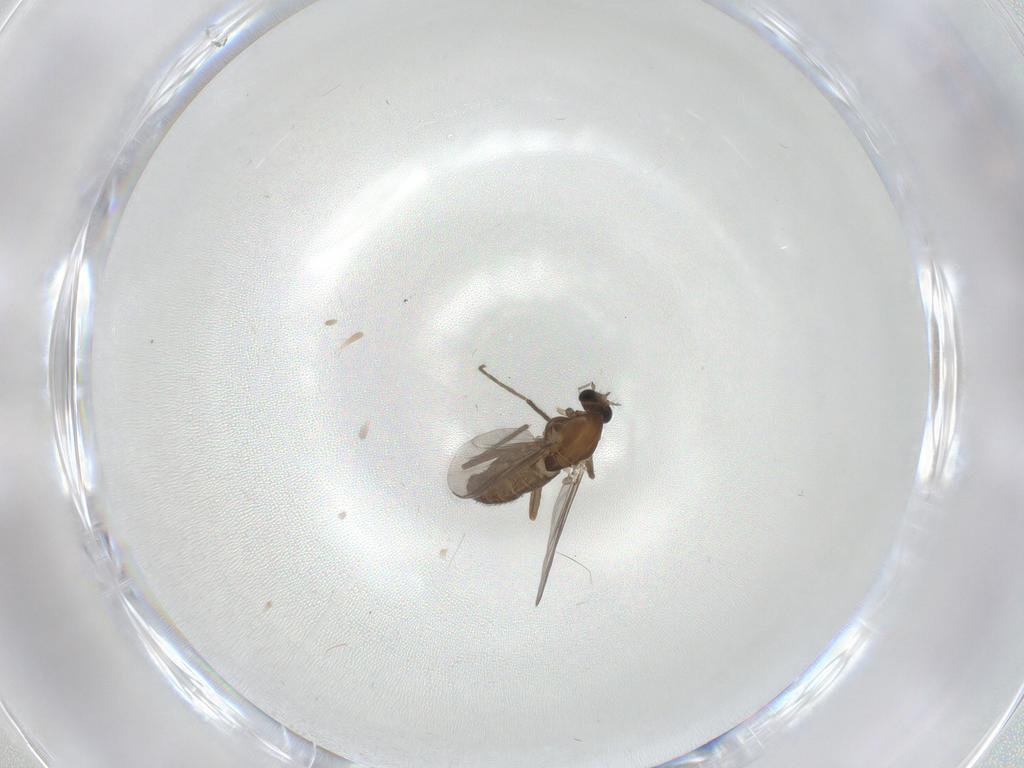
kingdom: Animalia
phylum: Arthropoda
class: Insecta
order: Diptera
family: Chironomidae
